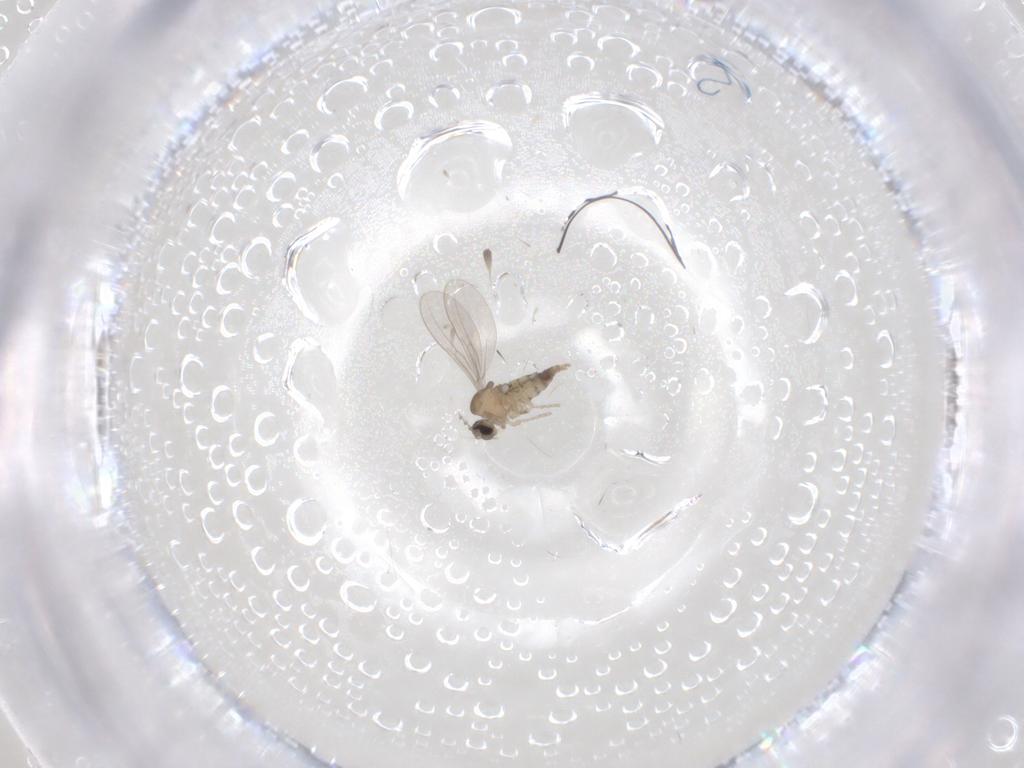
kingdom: Animalia
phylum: Arthropoda
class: Insecta
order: Diptera
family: Cecidomyiidae
